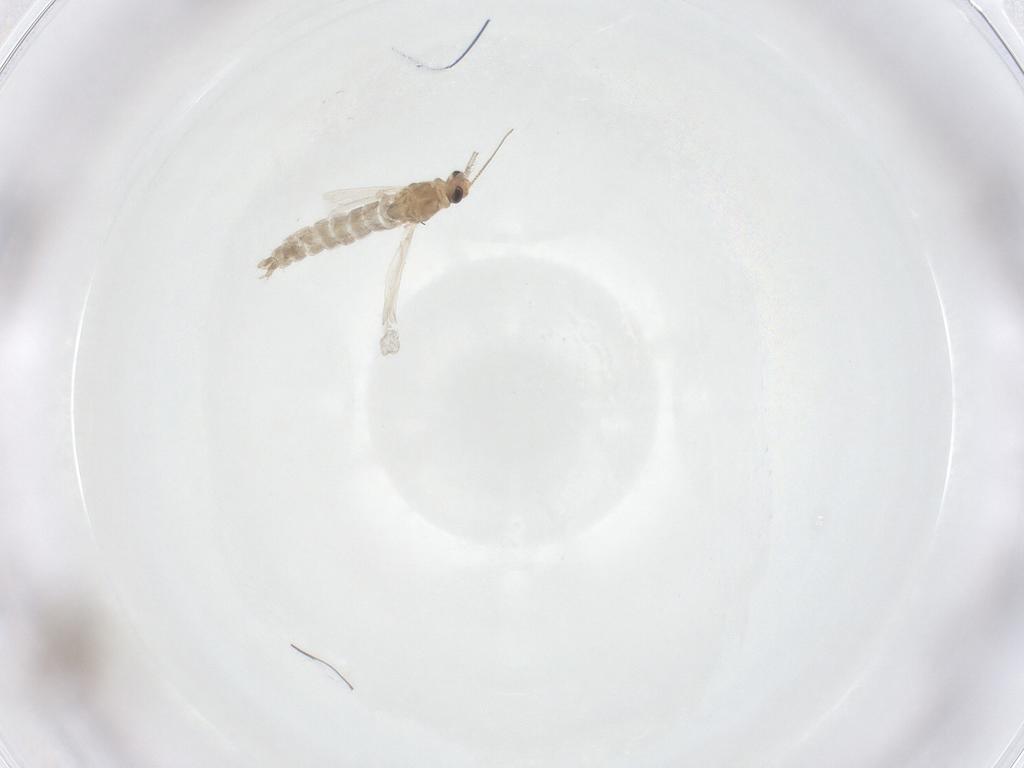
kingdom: Animalia
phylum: Arthropoda
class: Insecta
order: Diptera
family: Chironomidae
